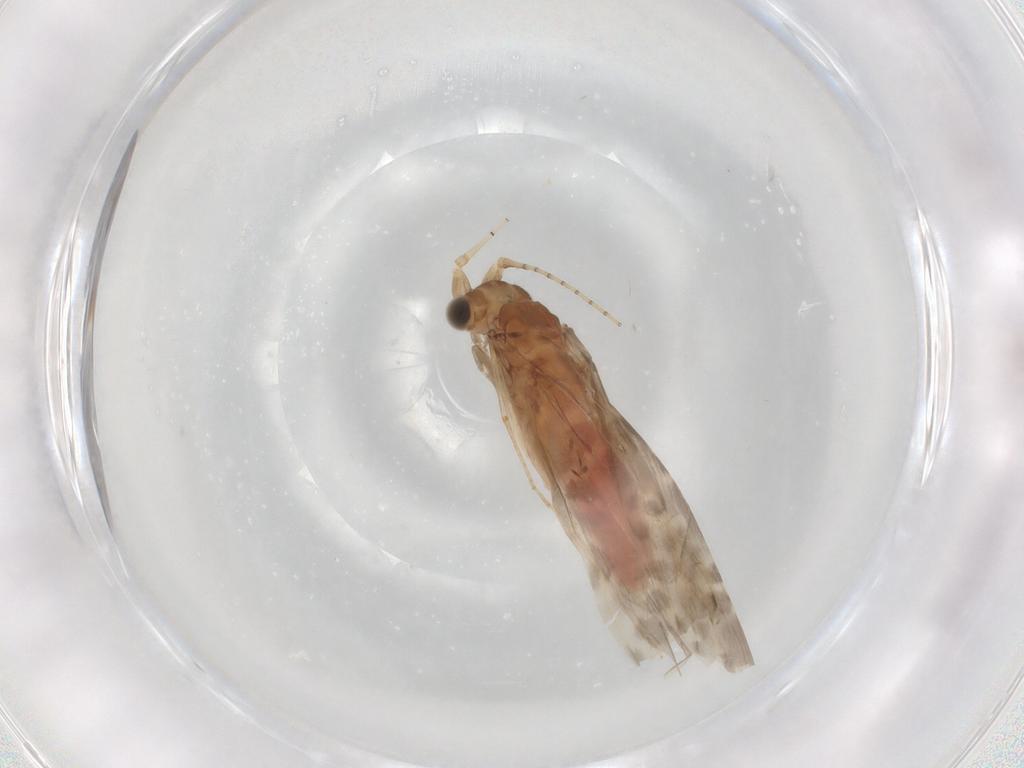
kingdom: Animalia
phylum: Arthropoda
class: Insecta
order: Trichoptera
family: Leptoceridae
